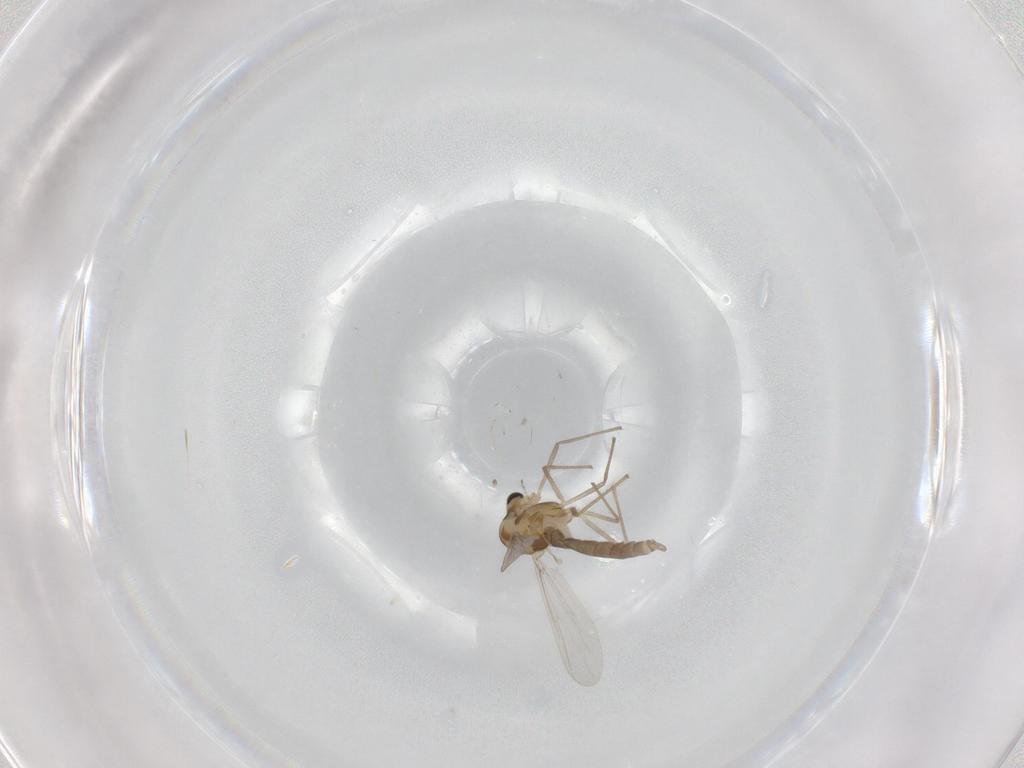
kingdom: Animalia
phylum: Arthropoda
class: Insecta
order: Diptera
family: Chironomidae
